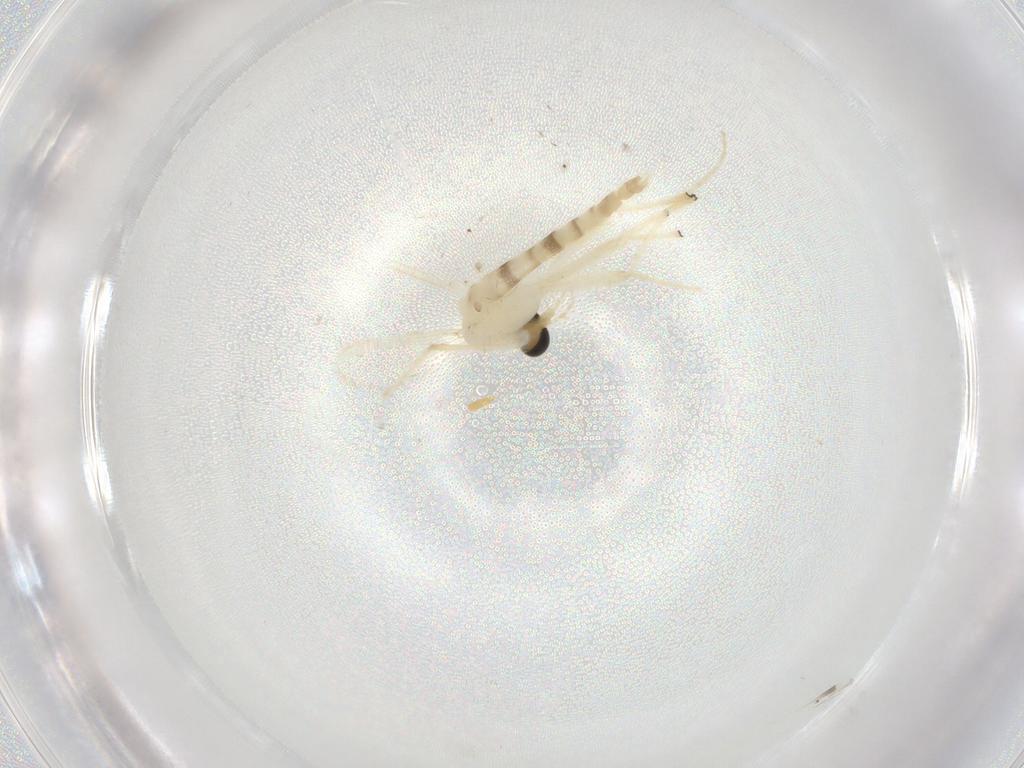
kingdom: Animalia
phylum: Arthropoda
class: Insecta
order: Diptera
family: Chironomidae
